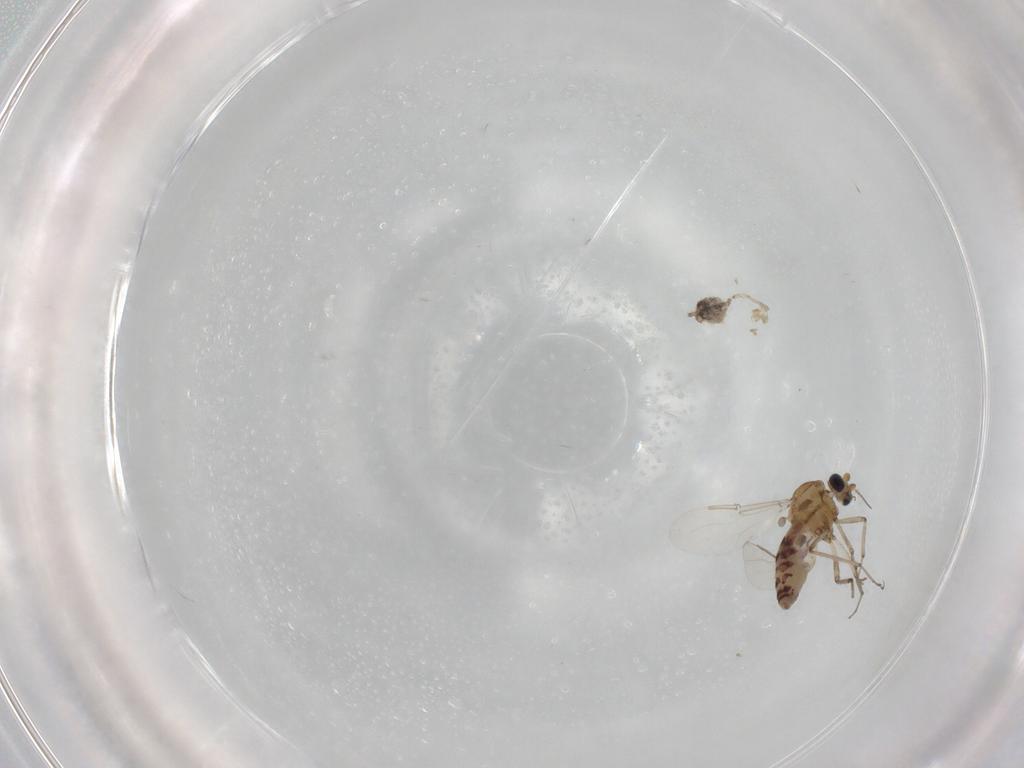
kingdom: Animalia
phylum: Arthropoda
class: Insecta
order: Diptera
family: Ceratopogonidae
